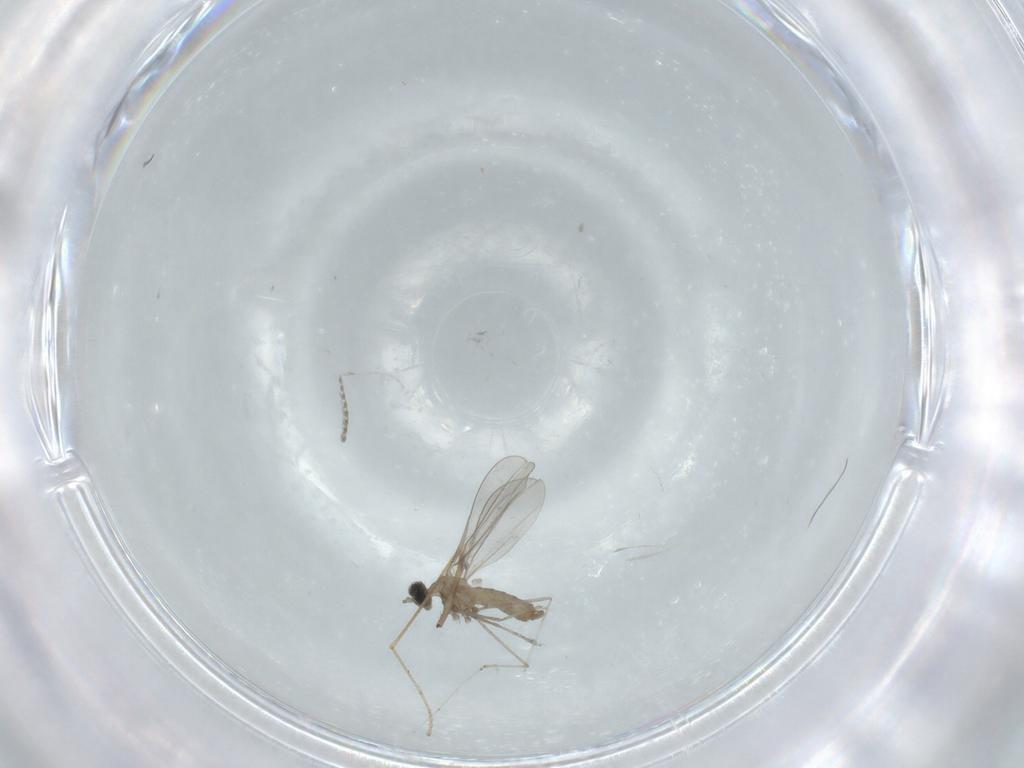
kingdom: Animalia
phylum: Arthropoda
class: Insecta
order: Diptera
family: Cecidomyiidae
